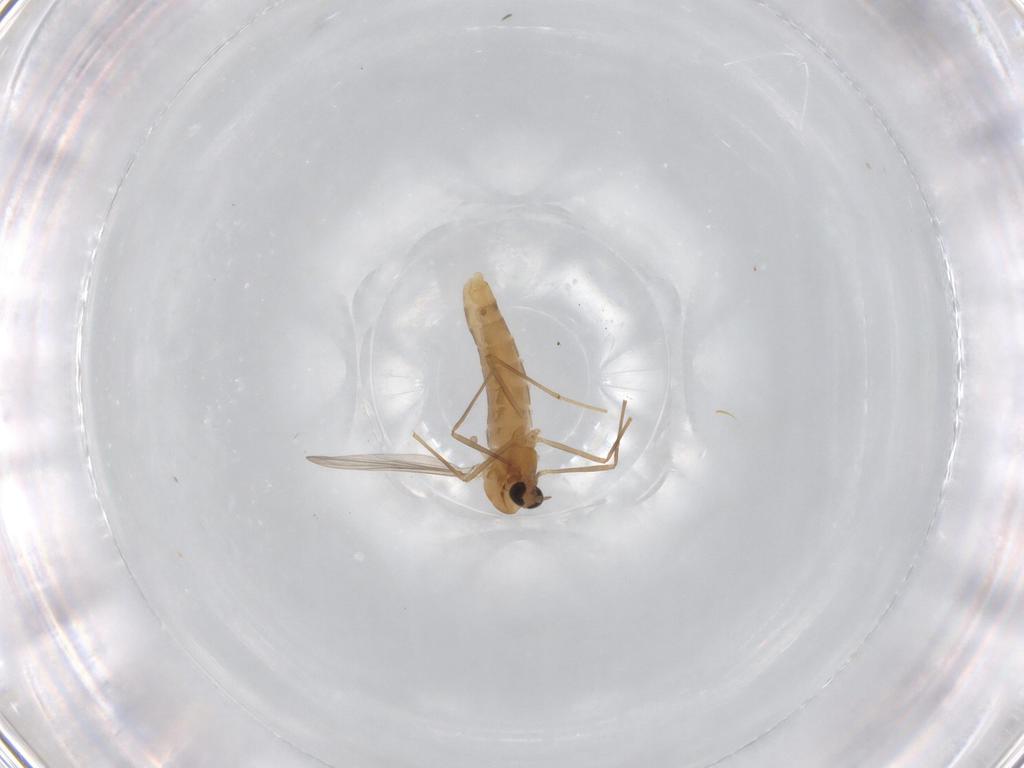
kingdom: Animalia
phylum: Arthropoda
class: Insecta
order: Diptera
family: Chironomidae
